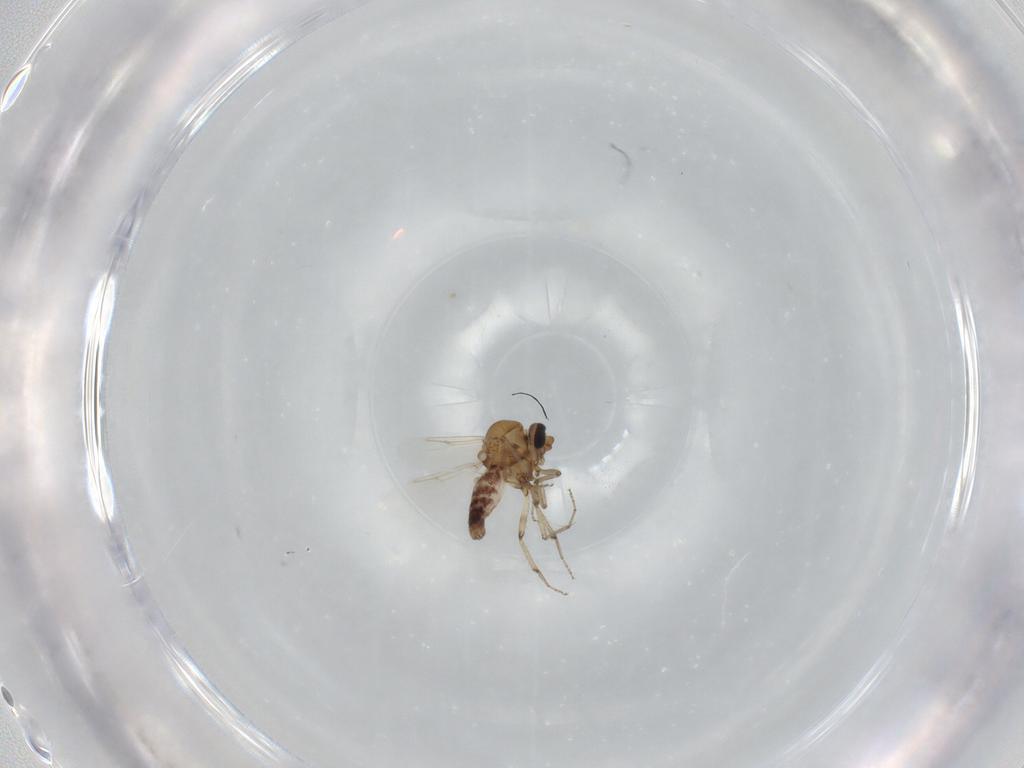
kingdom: Animalia
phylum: Arthropoda
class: Insecta
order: Diptera
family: Ceratopogonidae
